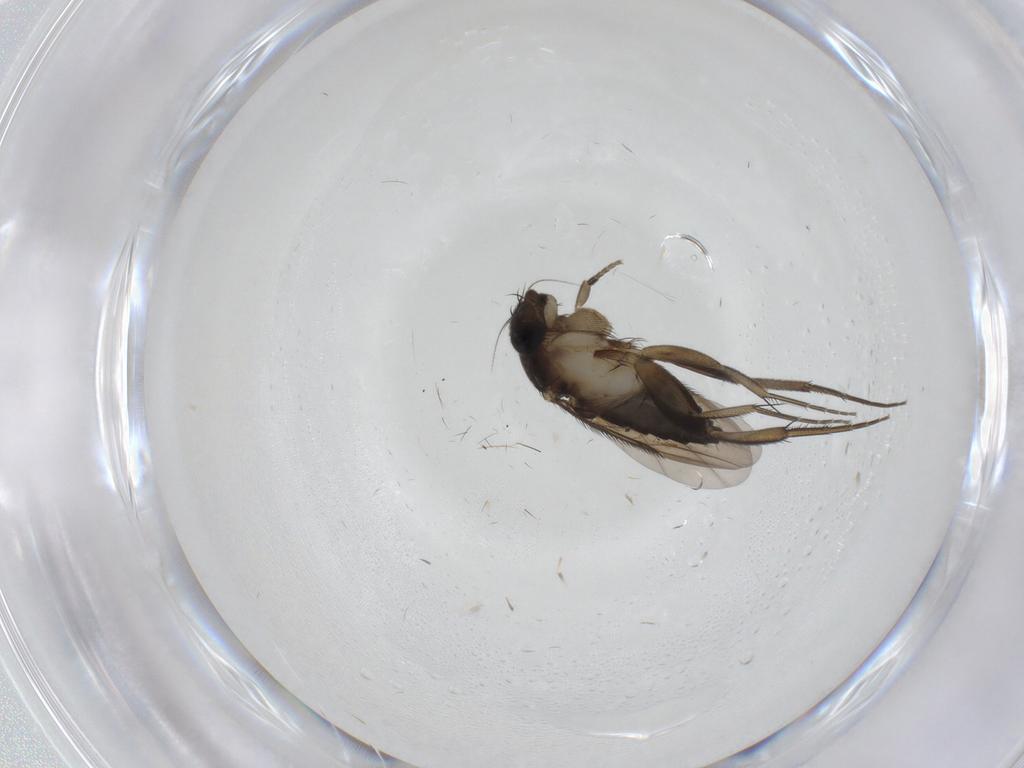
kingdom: Animalia
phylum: Arthropoda
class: Insecta
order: Diptera
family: Phoridae
